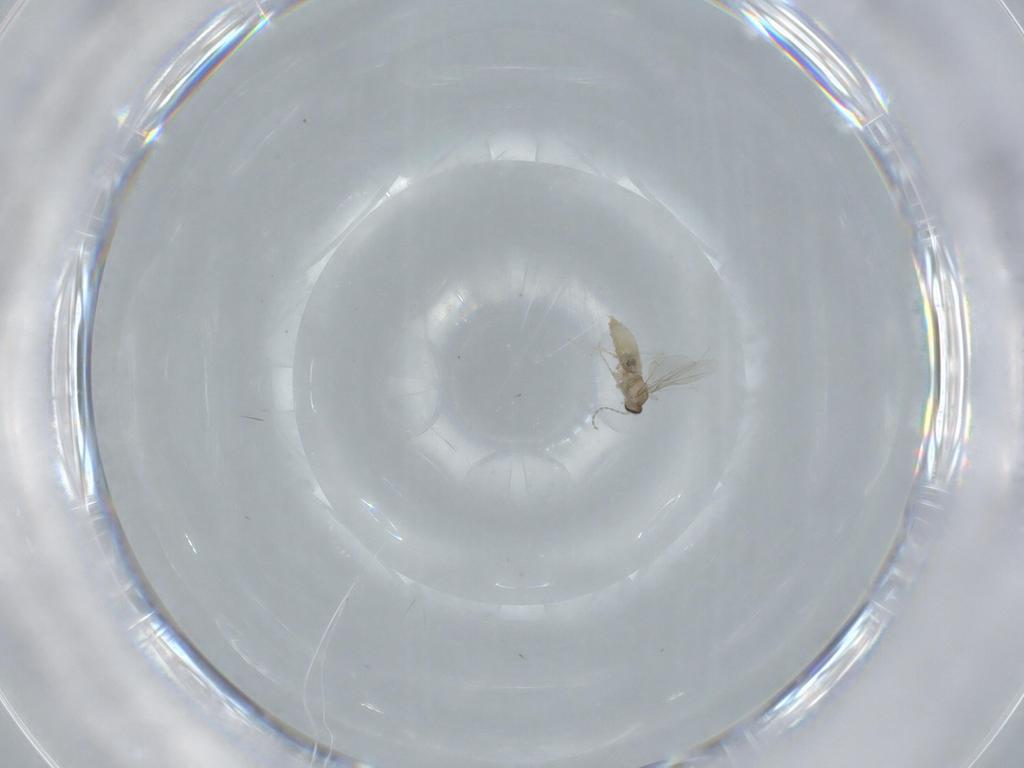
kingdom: Animalia
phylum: Arthropoda
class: Insecta
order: Diptera
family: Cecidomyiidae
